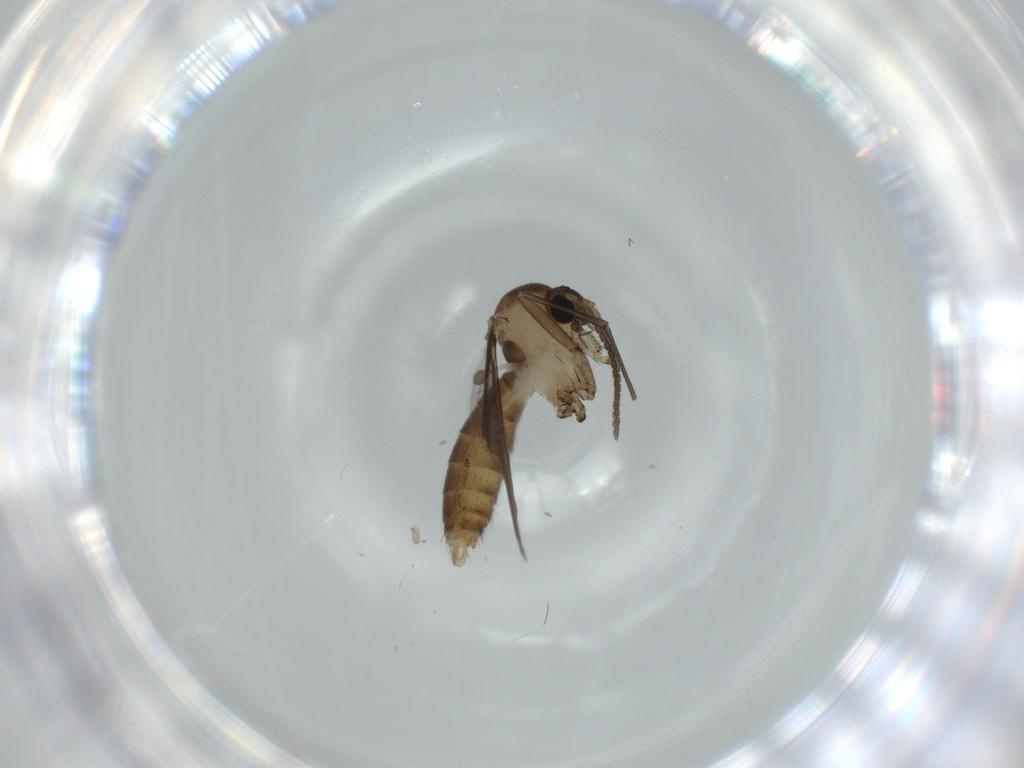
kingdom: Animalia
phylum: Arthropoda
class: Insecta
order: Diptera
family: Mycetophilidae
